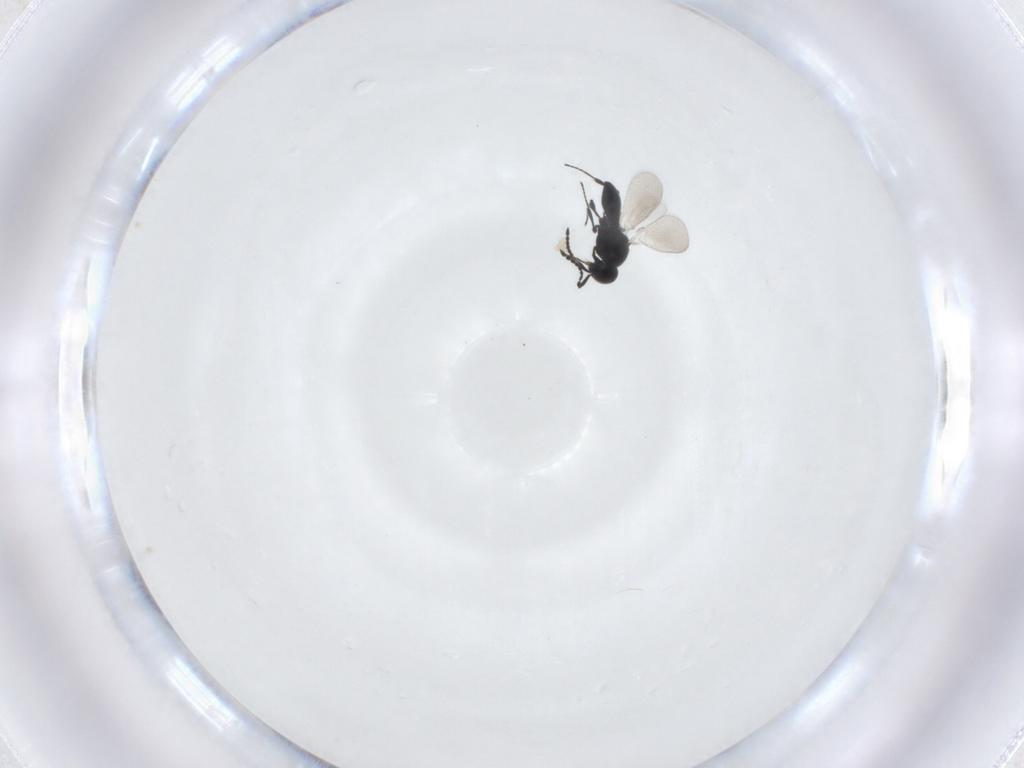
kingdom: Animalia
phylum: Arthropoda
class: Insecta
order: Hymenoptera
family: Platygastridae
